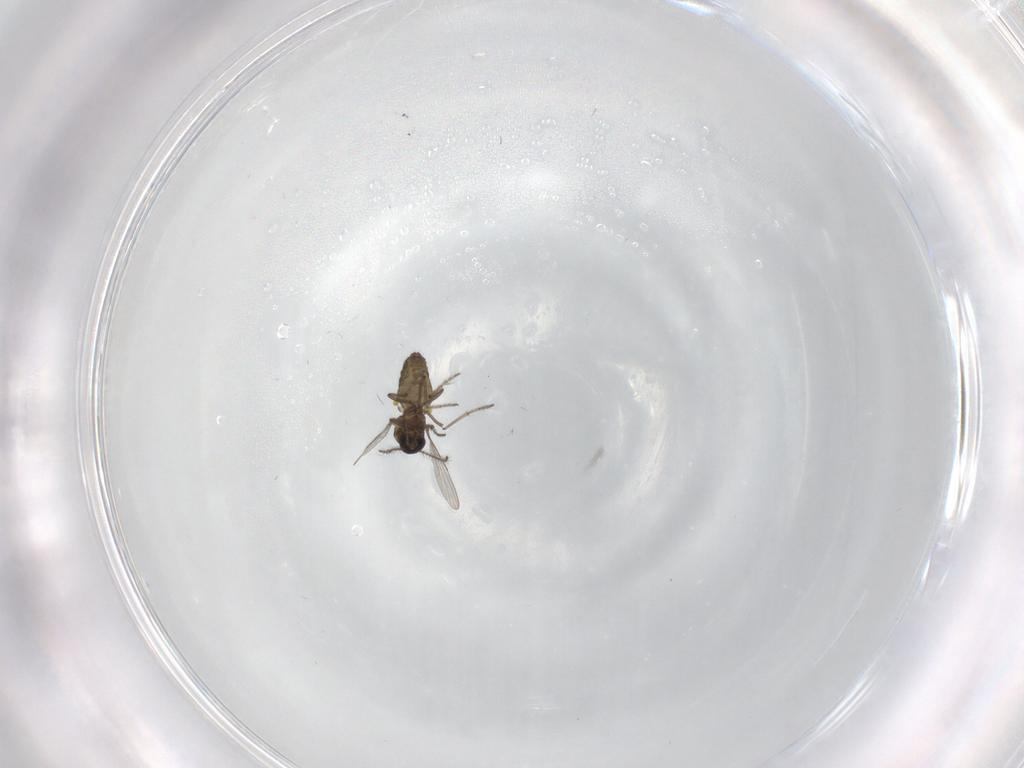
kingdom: Animalia
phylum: Arthropoda
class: Insecta
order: Diptera
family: Ceratopogonidae
